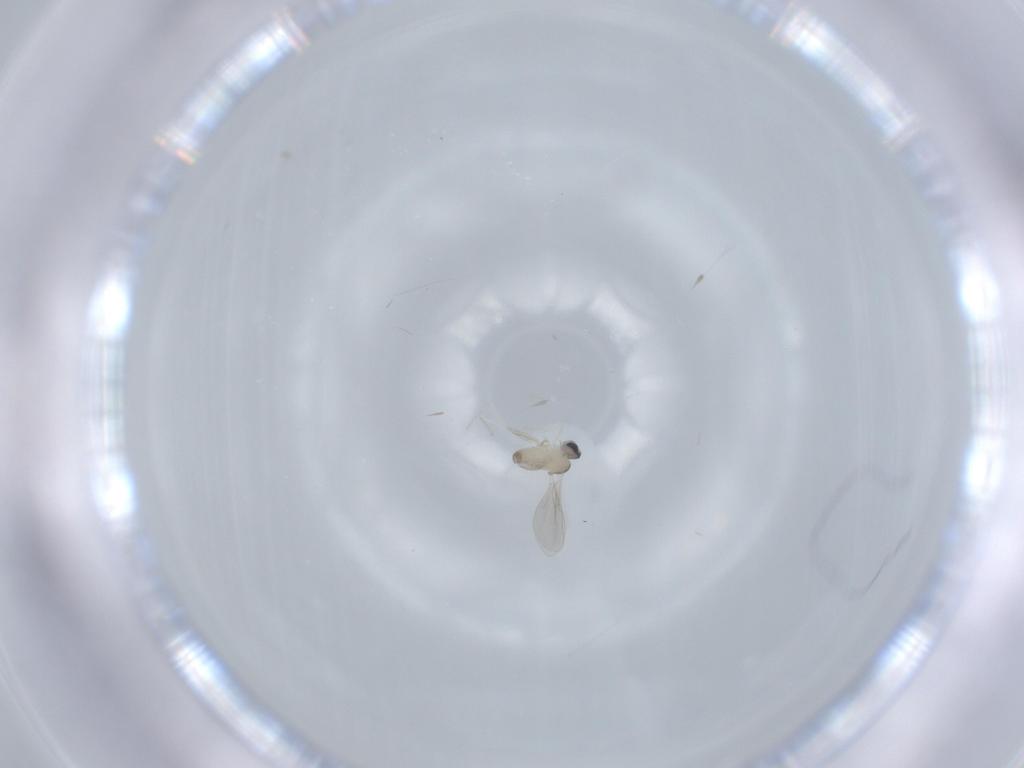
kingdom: Animalia
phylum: Arthropoda
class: Insecta
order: Diptera
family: Cecidomyiidae
